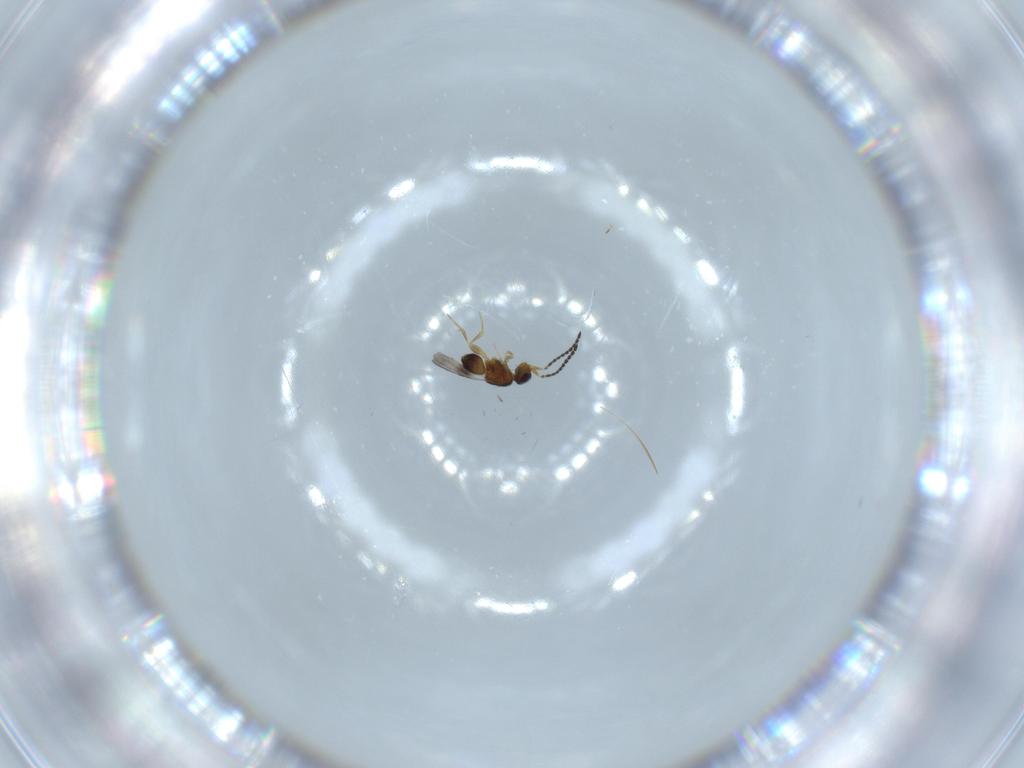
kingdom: Animalia
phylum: Arthropoda
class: Insecta
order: Hymenoptera
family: Ceraphronidae
